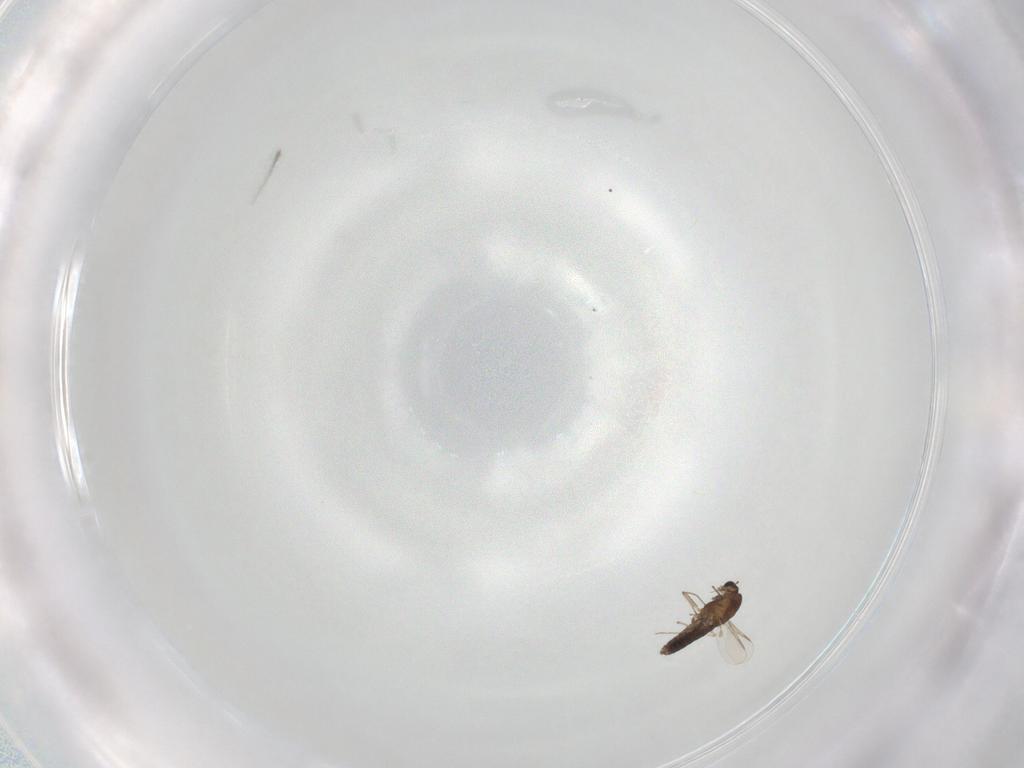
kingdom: Animalia
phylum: Arthropoda
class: Insecta
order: Diptera
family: Chironomidae
